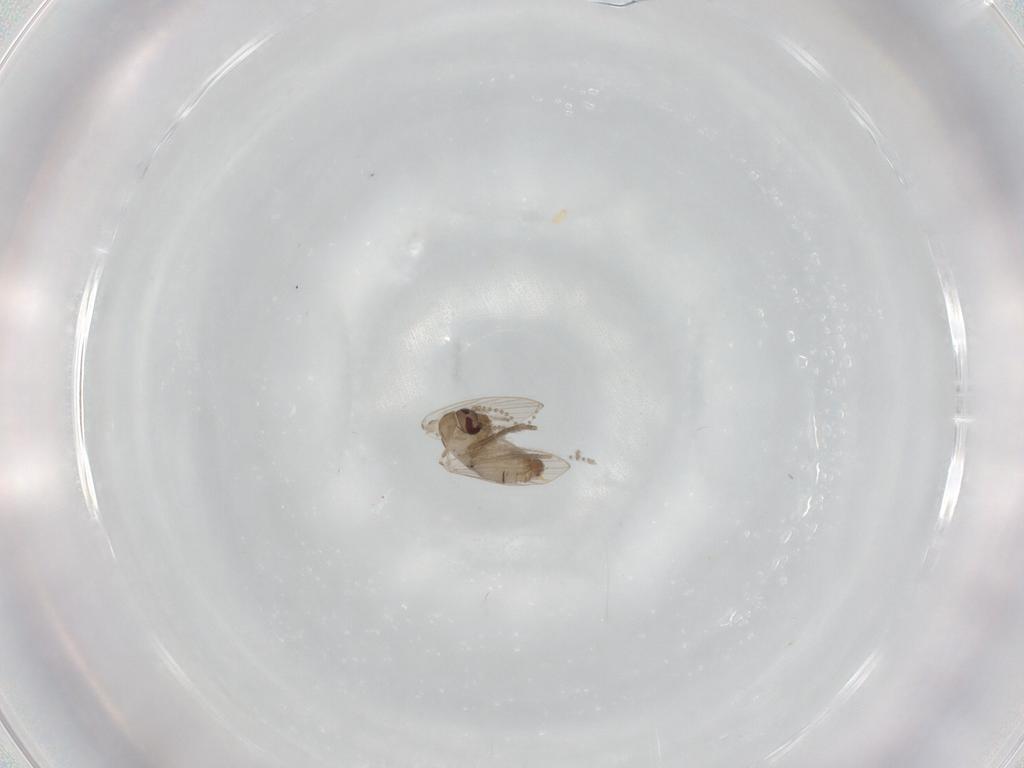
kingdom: Animalia
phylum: Arthropoda
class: Insecta
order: Diptera
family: Psychodidae
